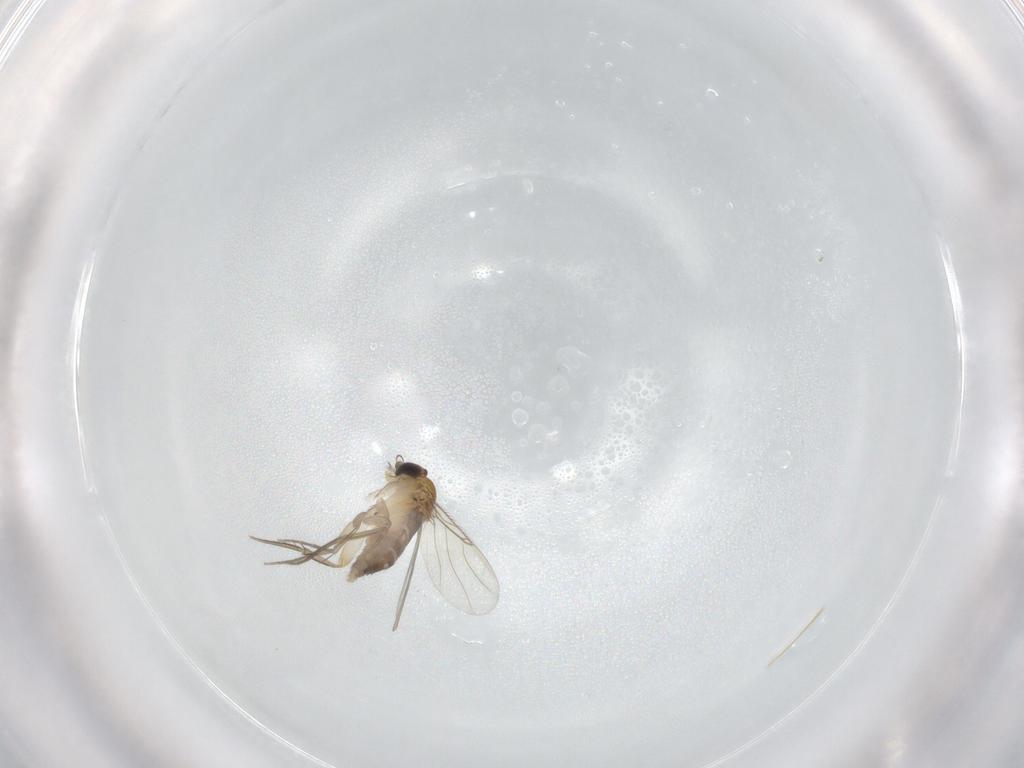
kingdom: Animalia
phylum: Arthropoda
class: Insecta
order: Diptera
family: Phoridae
